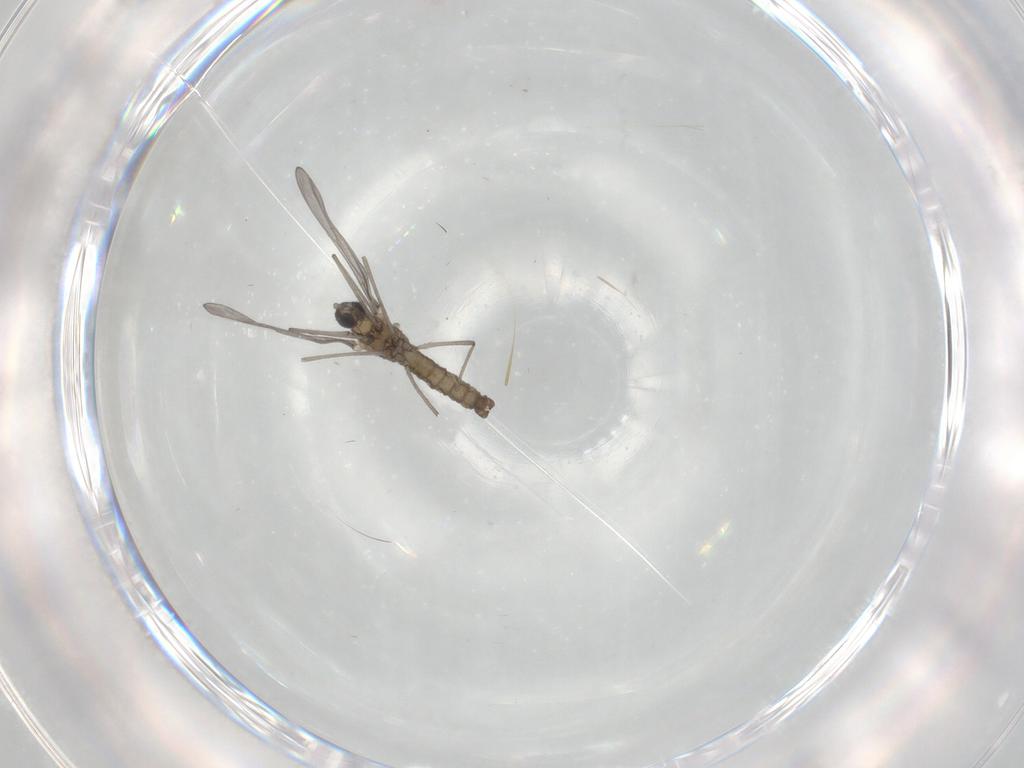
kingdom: Animalia
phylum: Arthropoda
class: Insecta
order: Diptera
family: Cecidomyiidae
